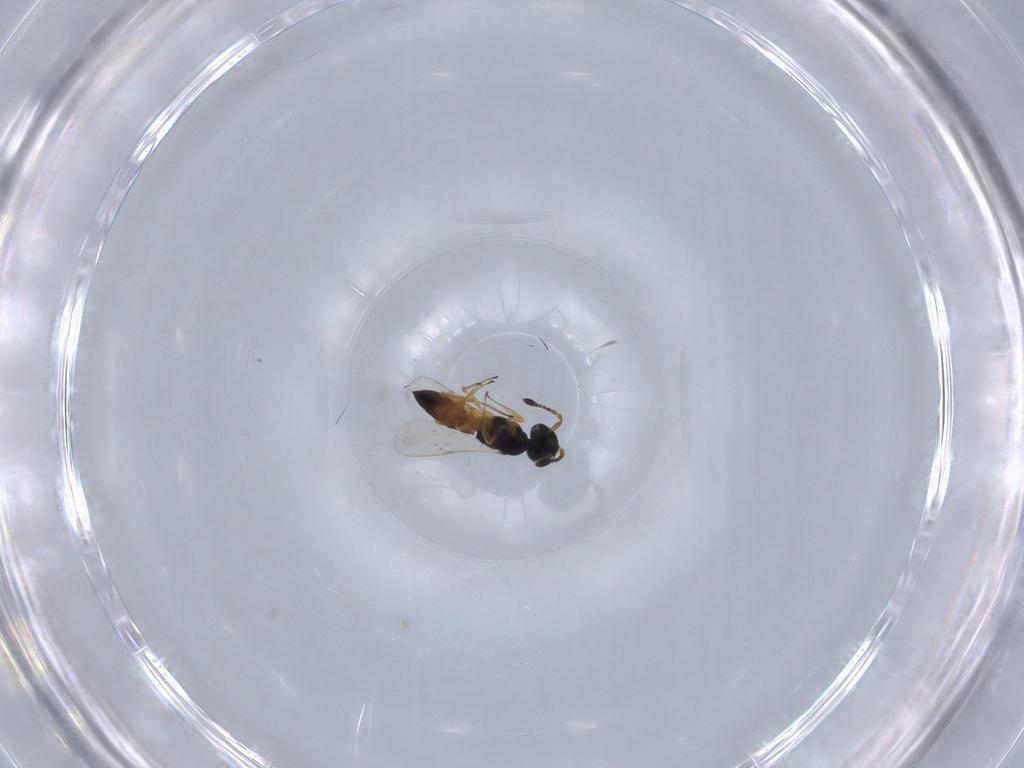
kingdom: Animalia
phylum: Arthropoda
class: Insecta
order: Hymenoptera
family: Scelionidae
